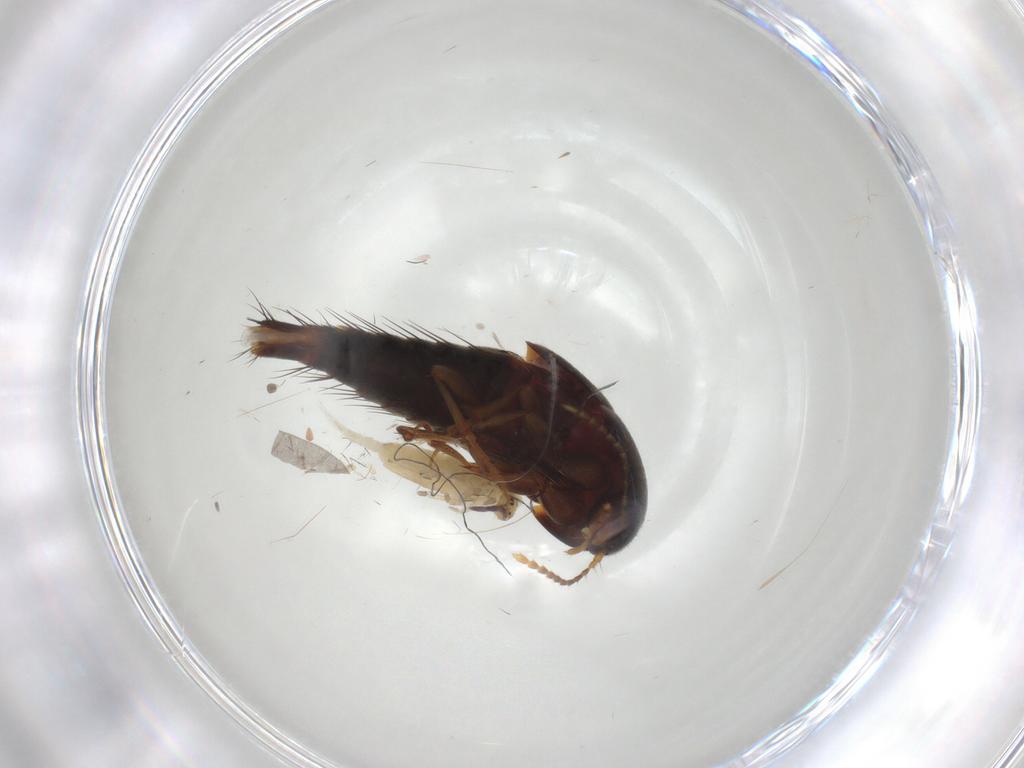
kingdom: Animalia
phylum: Arthropoda
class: Insecta
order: Coleoptera
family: Staphylinidae
